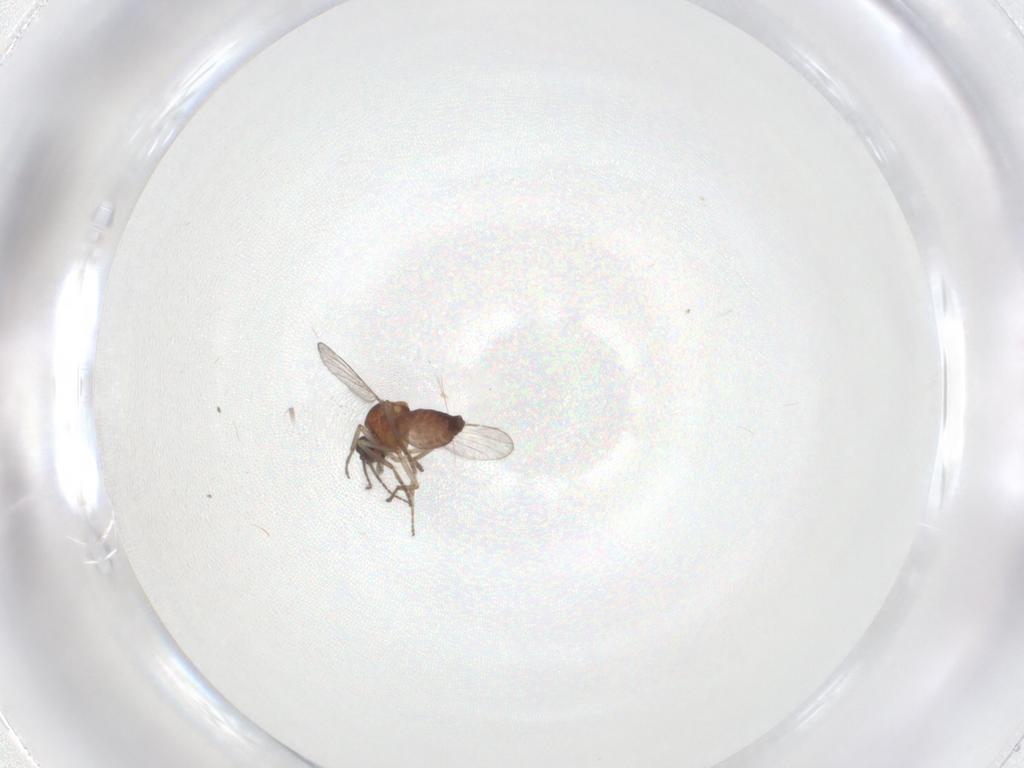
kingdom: Animalia
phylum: Arthropoda
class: Insecta
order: Diptera
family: Ceratopogonidae
